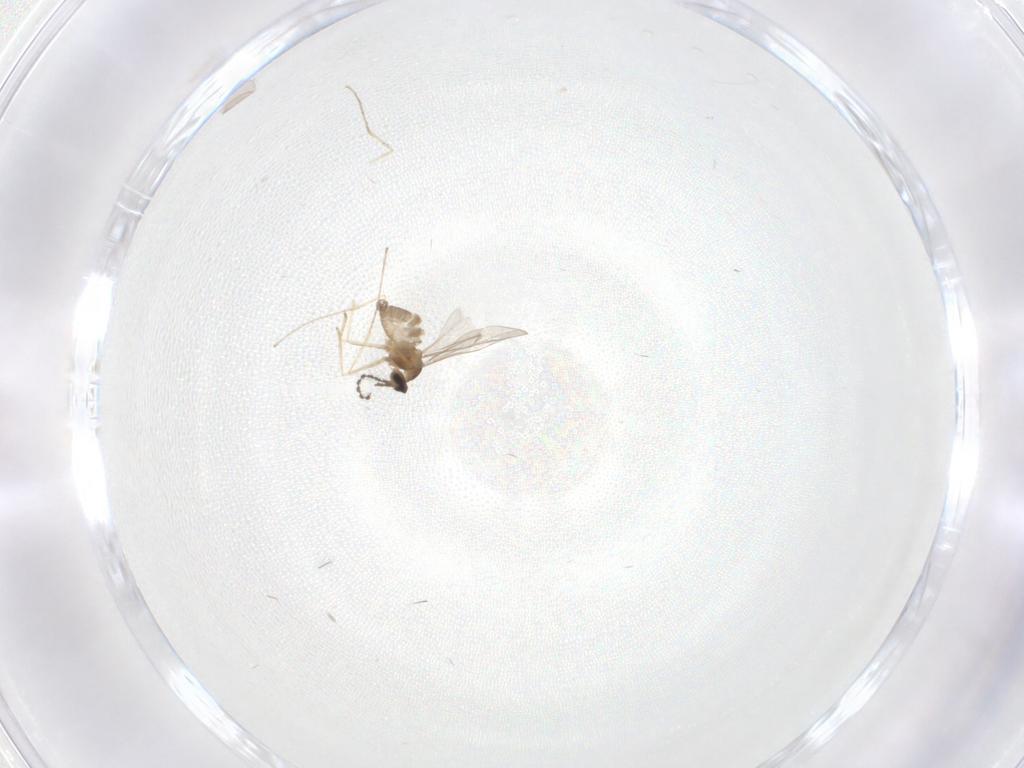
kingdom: Animalia
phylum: Arthropoda
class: Insecta
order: Diptera
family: Cecidomyiidae
